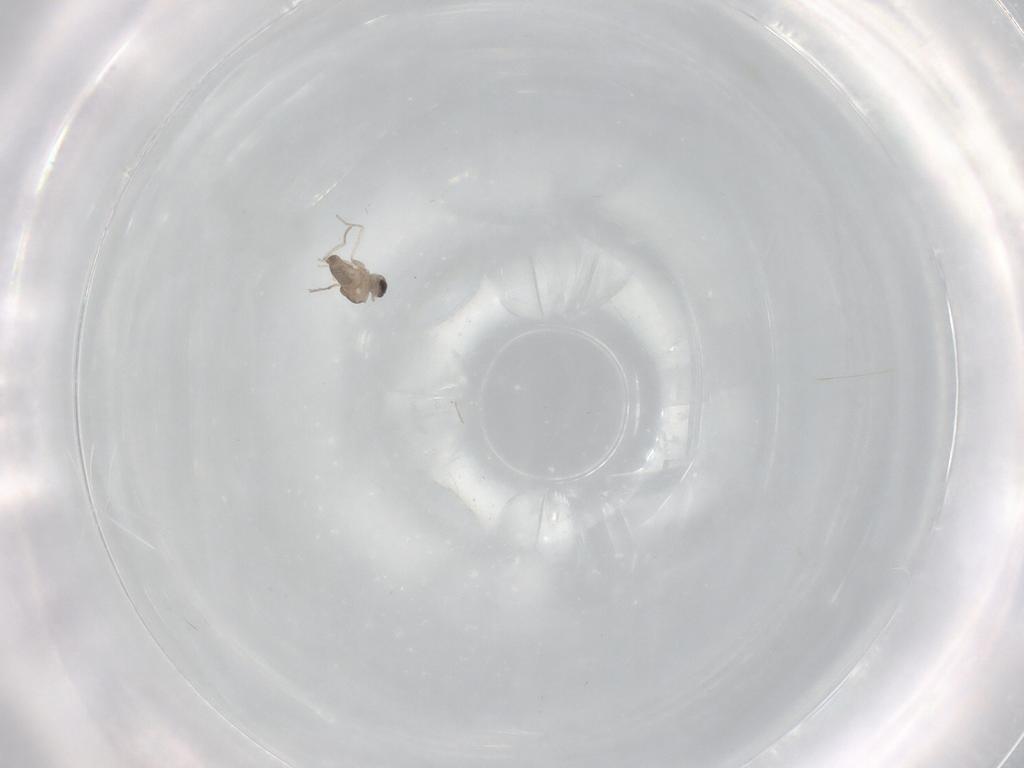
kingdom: Animalia
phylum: Arthropoda
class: Insecta
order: Diptera
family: Cecidomyiidae
